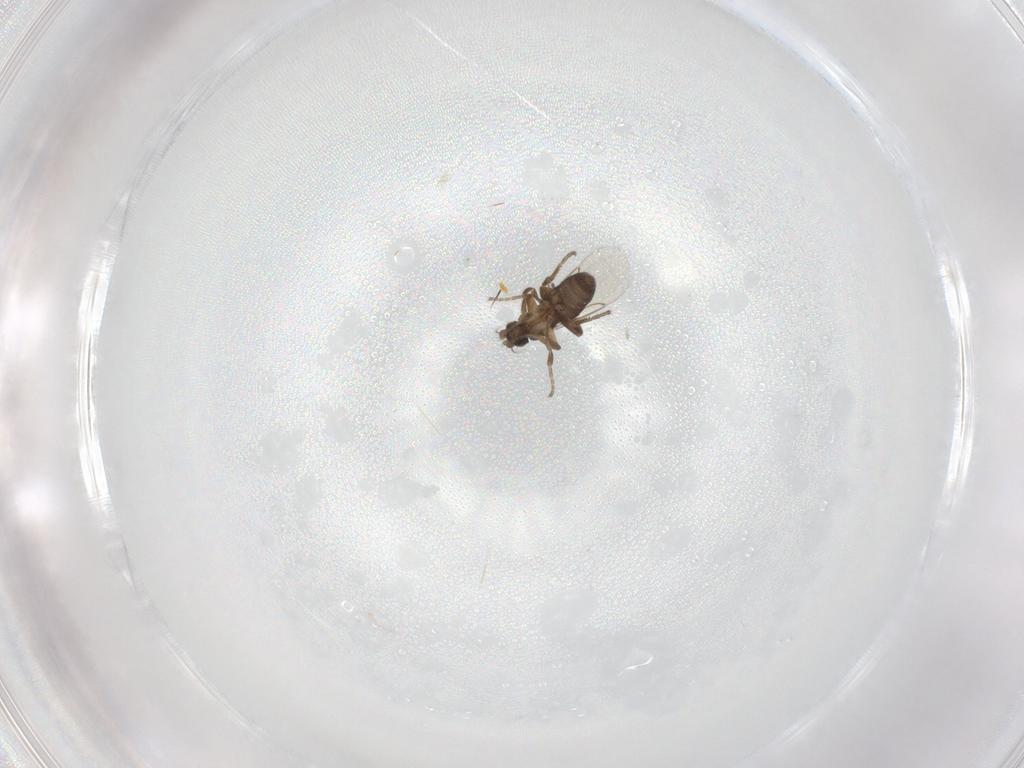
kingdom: Animalia
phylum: Arthropoda
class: Insecta
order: Diptera
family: Phoridae
